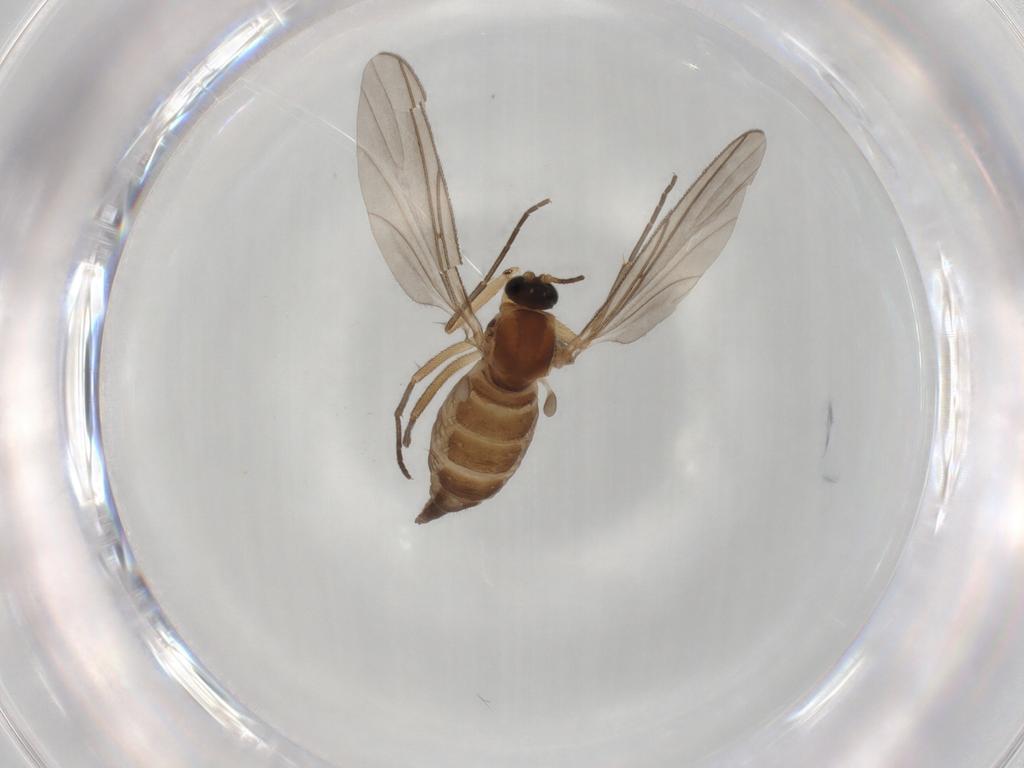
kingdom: Animalia
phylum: Arthropoda
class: Insecta
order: Diptera
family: Sciaridae
